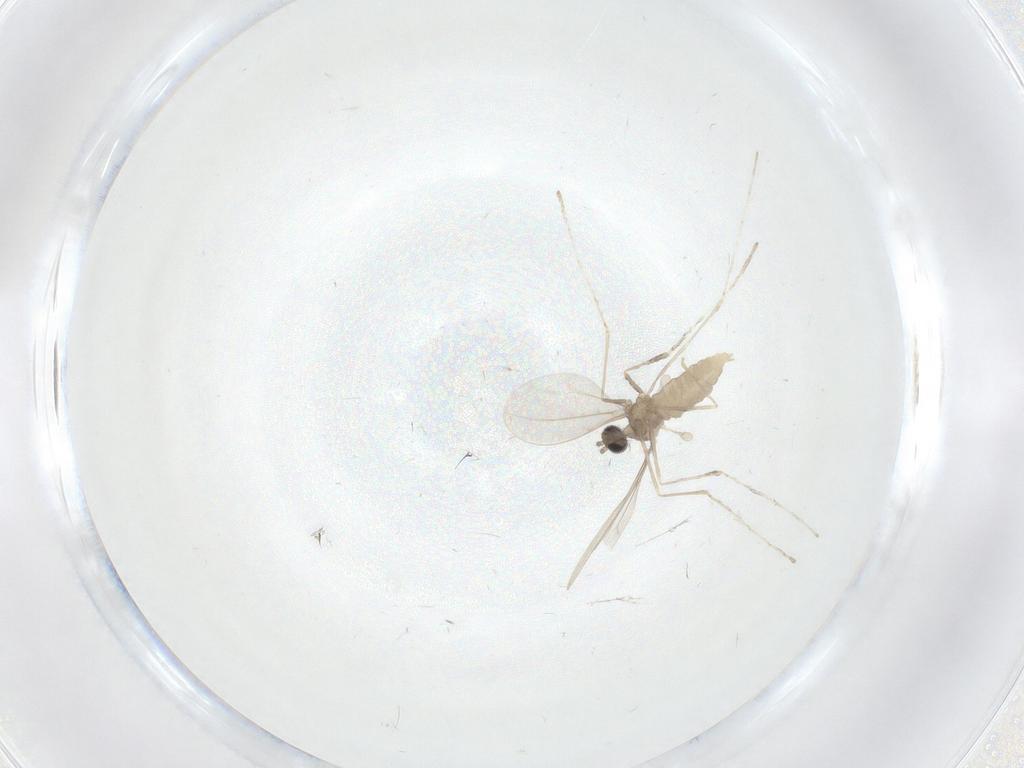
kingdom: Animalia
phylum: Arthropoda
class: Insecta
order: Diptera
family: Cecidomyiidae
